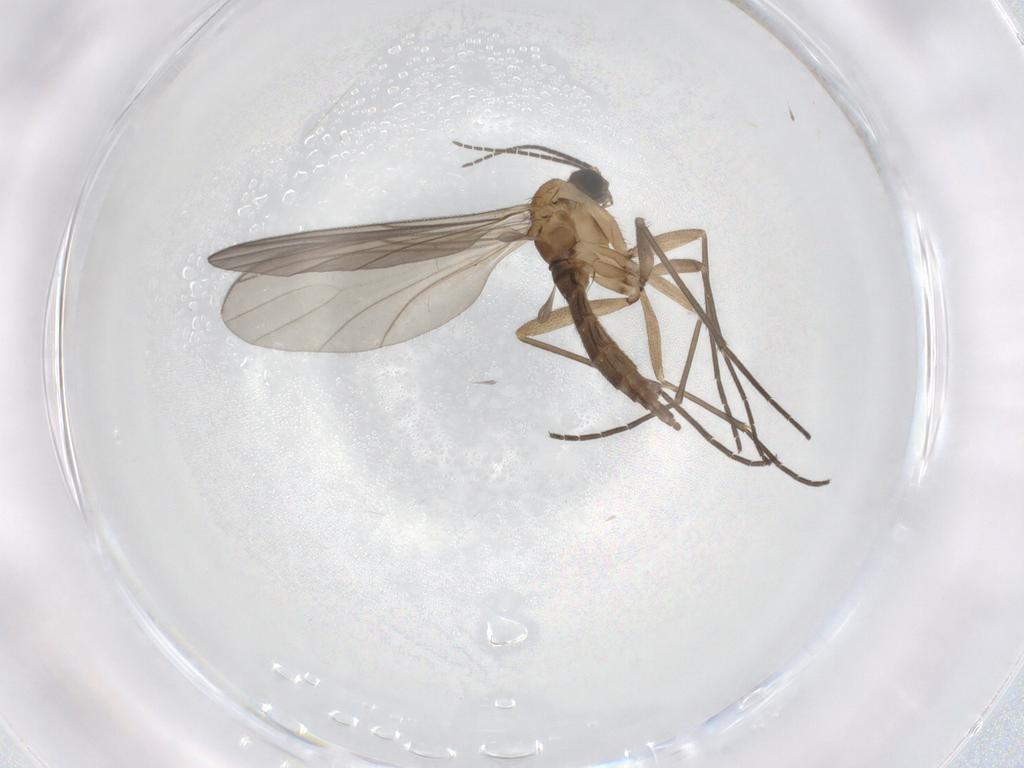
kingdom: Animalia
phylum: Arthropoda
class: Insecta
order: Diptera
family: Sciaridae
